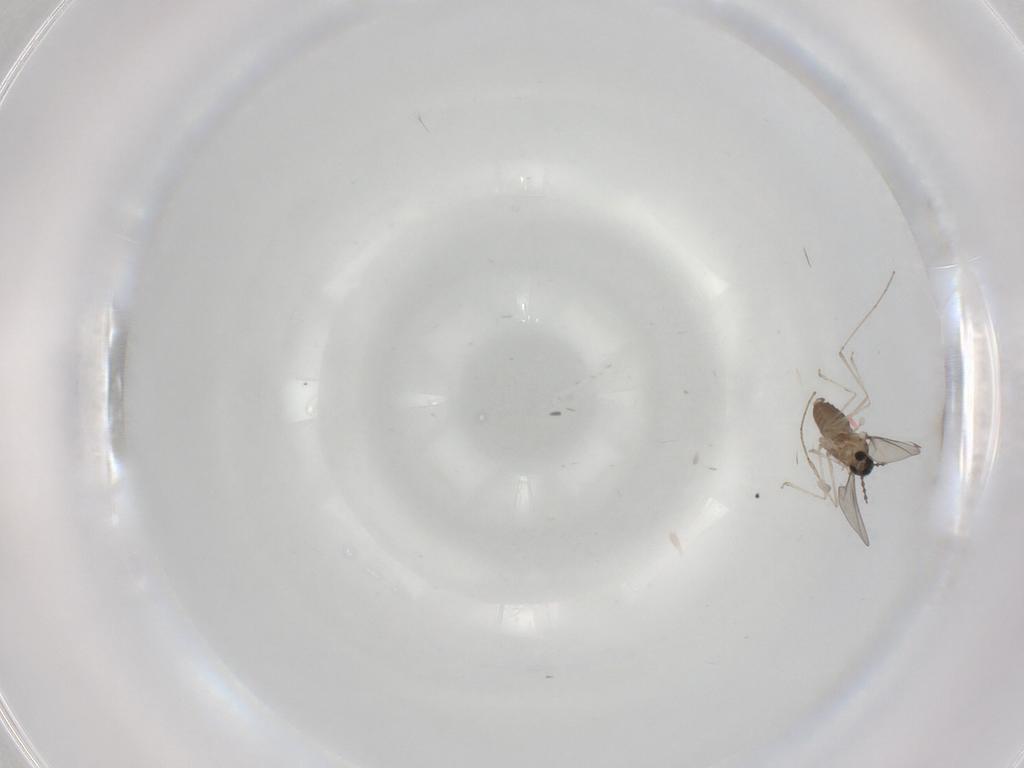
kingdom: Animalia
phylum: Arthropoda
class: Insecta
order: Diptera
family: Cecidomyiidae
